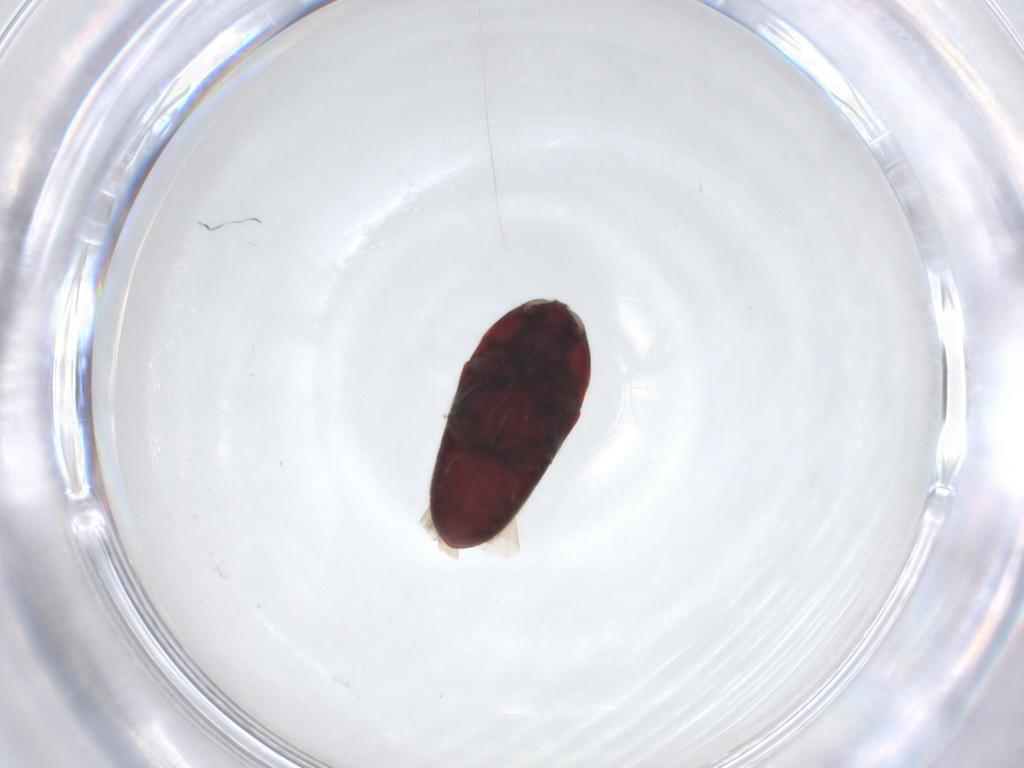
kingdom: Animalia
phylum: Arthropoda
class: Insecta
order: Coleoptera
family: Throscidae
